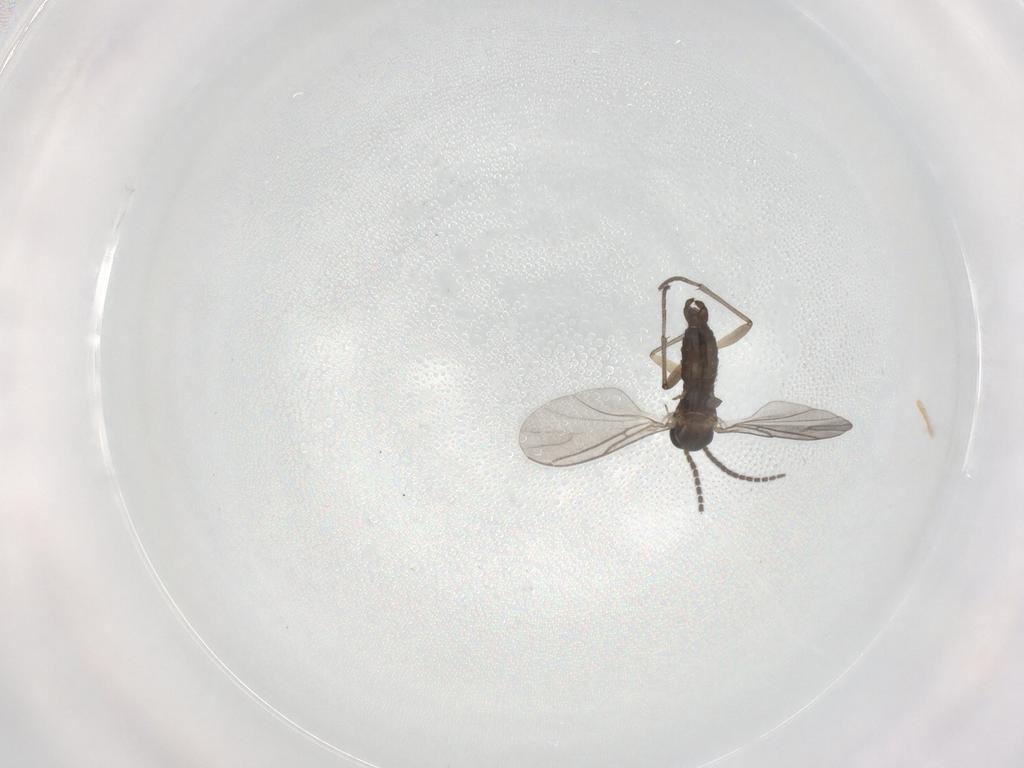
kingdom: Animalia
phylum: Arthropoda
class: Insecta
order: Diptera
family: Sciaridae
